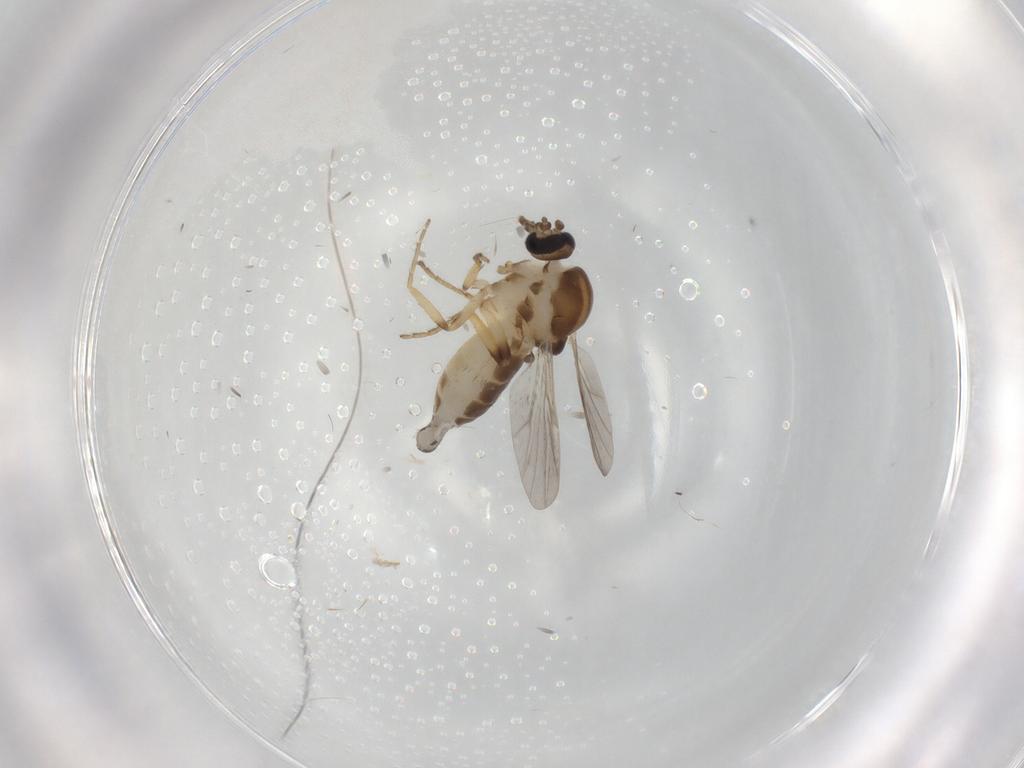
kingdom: Animalia
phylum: Arthropoda
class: Insecta
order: Diptera
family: Ceratopogonidae
